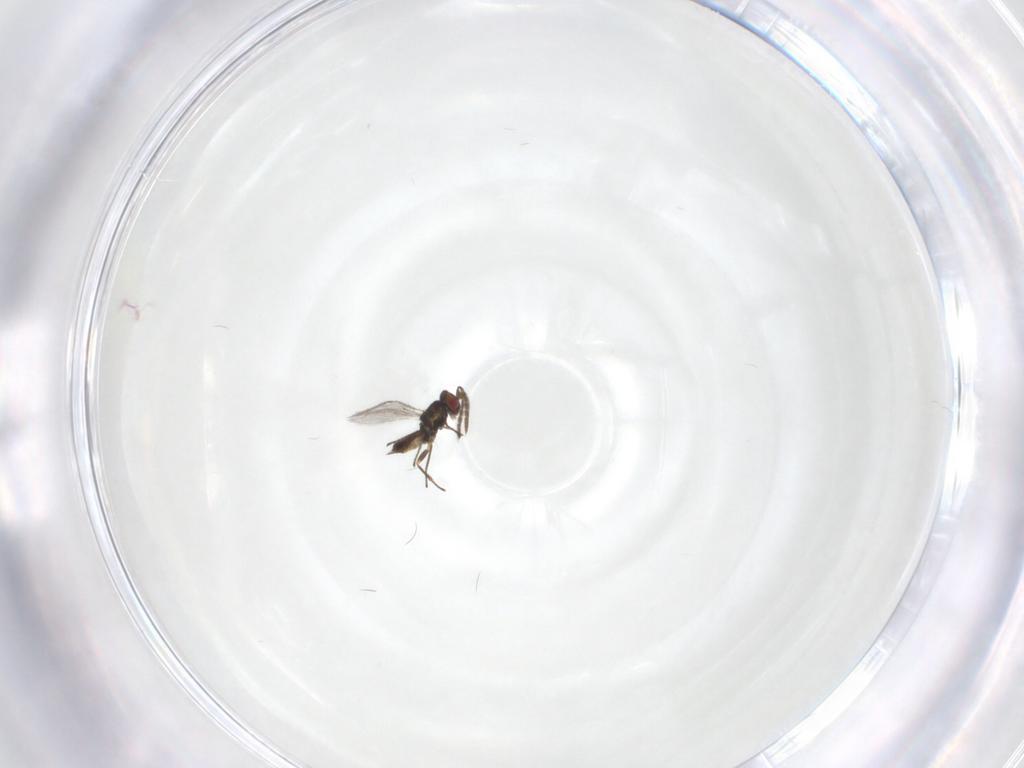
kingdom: Animalia
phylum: Arthropoda
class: Insecta
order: Hymenoptera
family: Eulophidae
